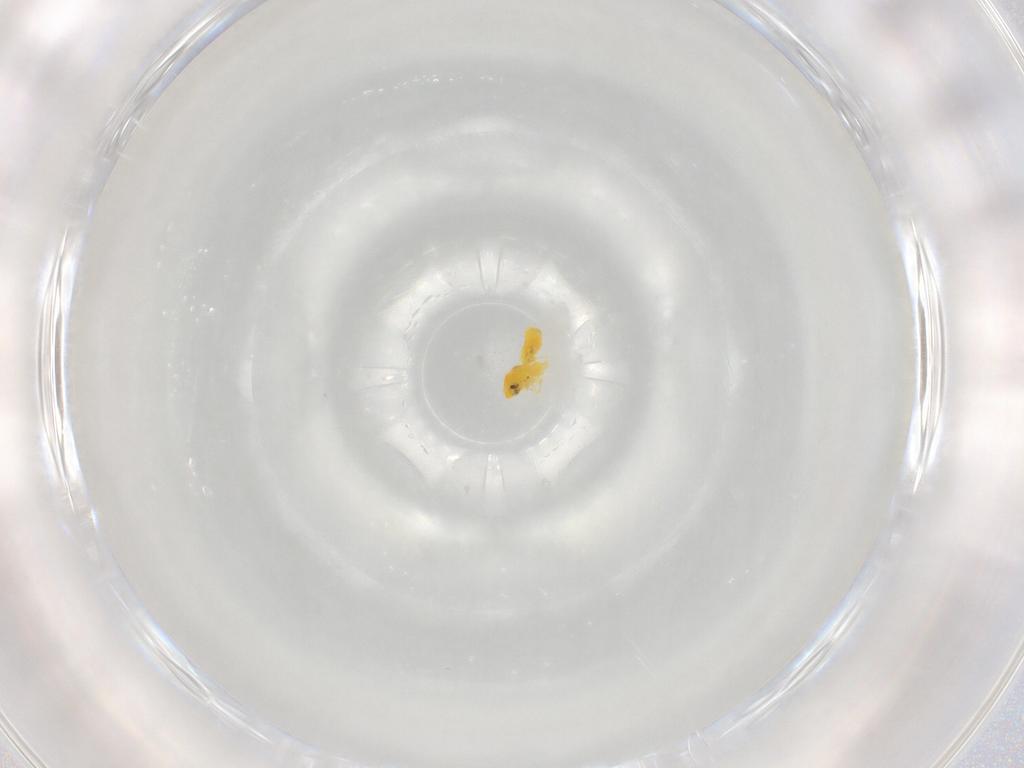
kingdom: Animalia
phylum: Arthropoda
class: Insecta
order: Hemiptera
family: Aleyrodidae
